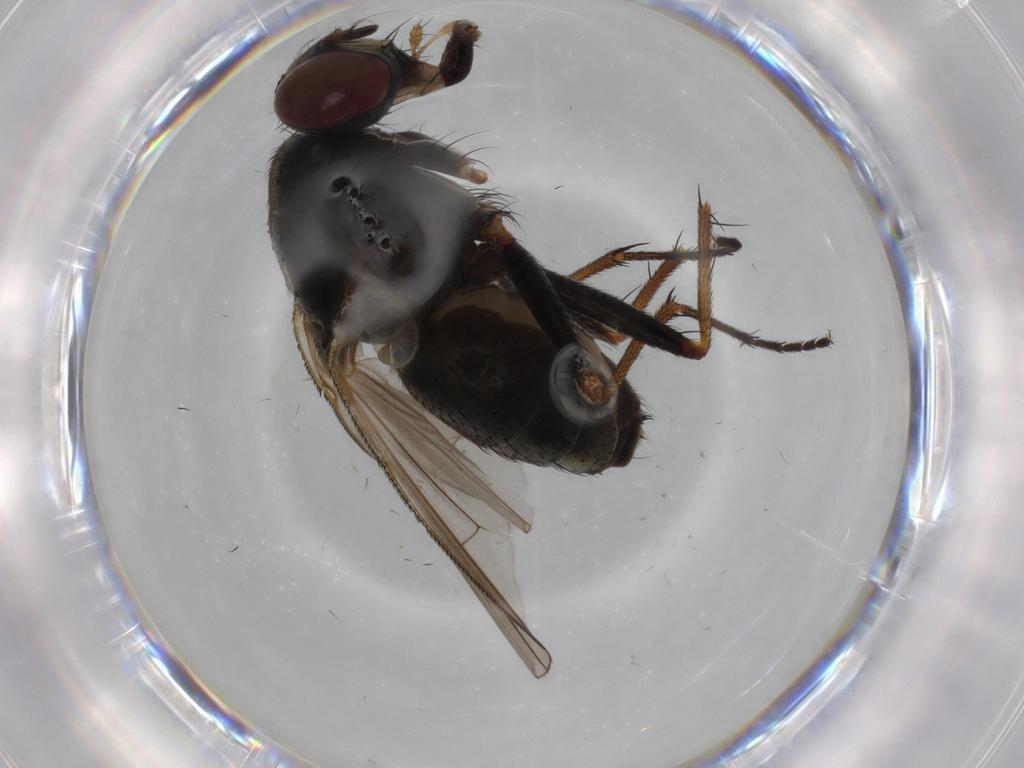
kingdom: Animalia
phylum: Arthropoda
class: Insecta
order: Diptera
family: Muscidae
